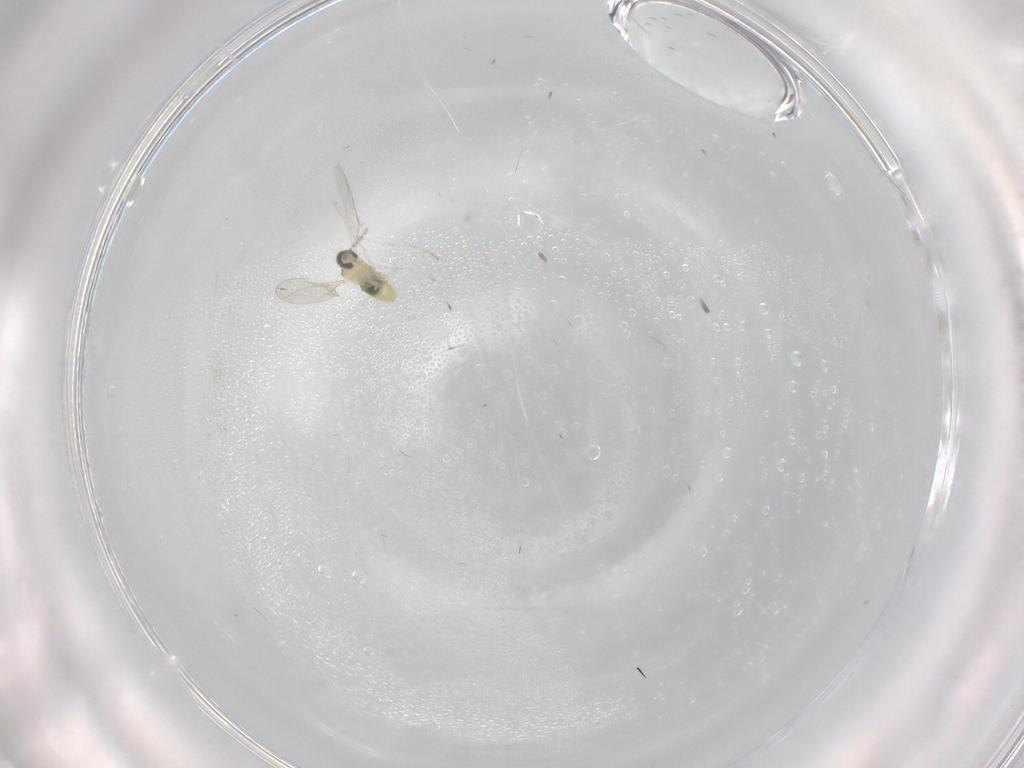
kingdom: Animalia
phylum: Arthropoda
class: Insecta
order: Diptera
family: Cecidomyiidae
